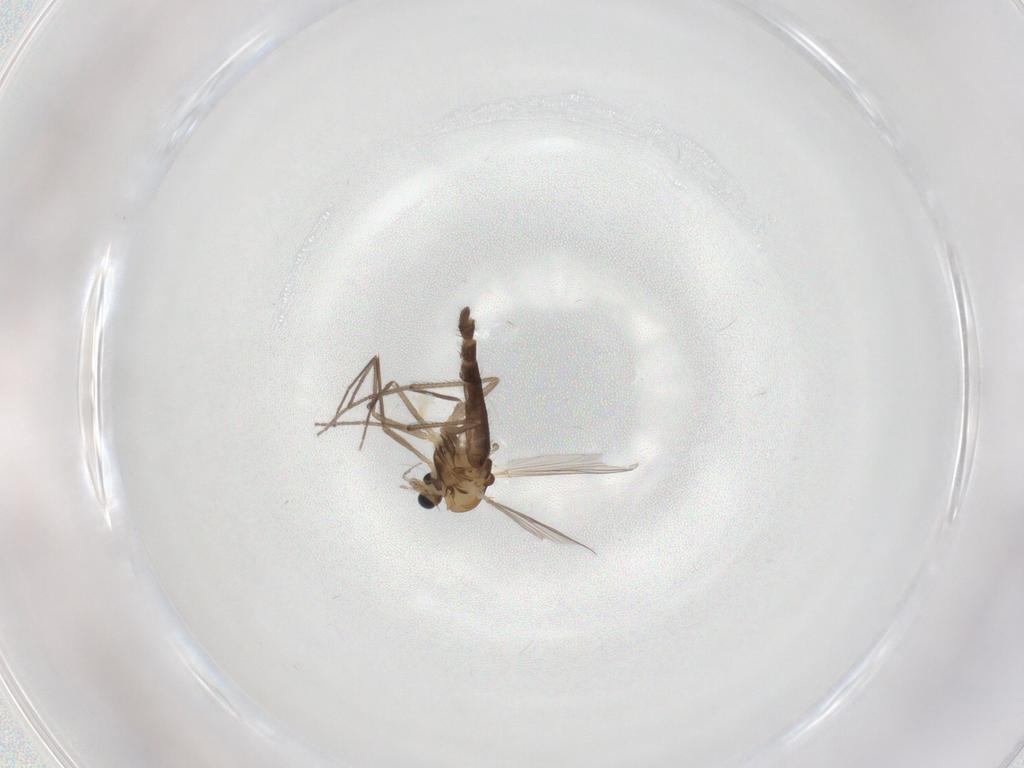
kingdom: Animalia
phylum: Arthropoda
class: Insecta
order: Diptera
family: Chironomidae
